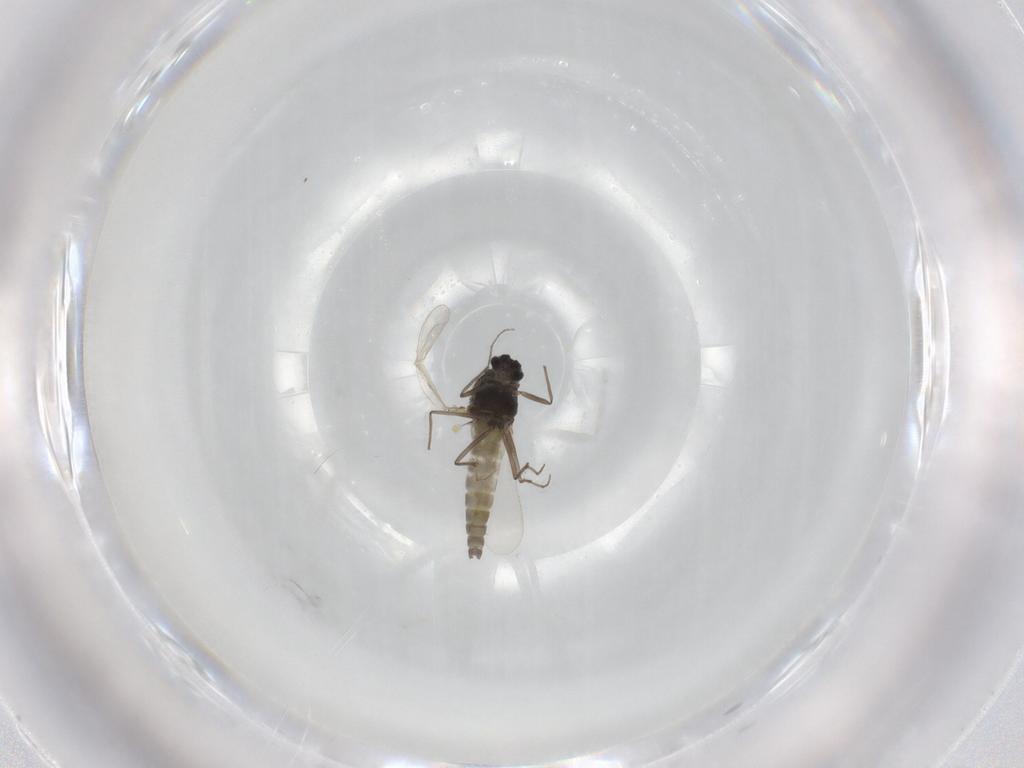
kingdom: Animalia
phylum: Arthropoda
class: Insecta
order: Diptera
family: Chironomidae
